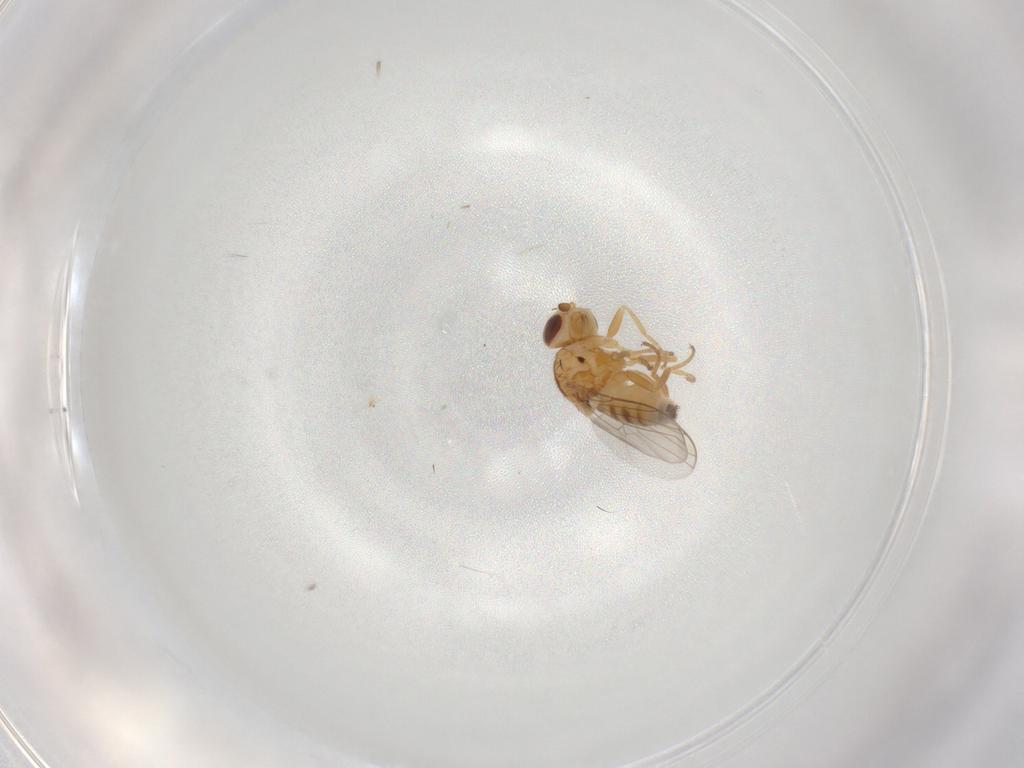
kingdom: Animalia
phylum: Arthropoda
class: Insecta
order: Diptera
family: Chloropidae
